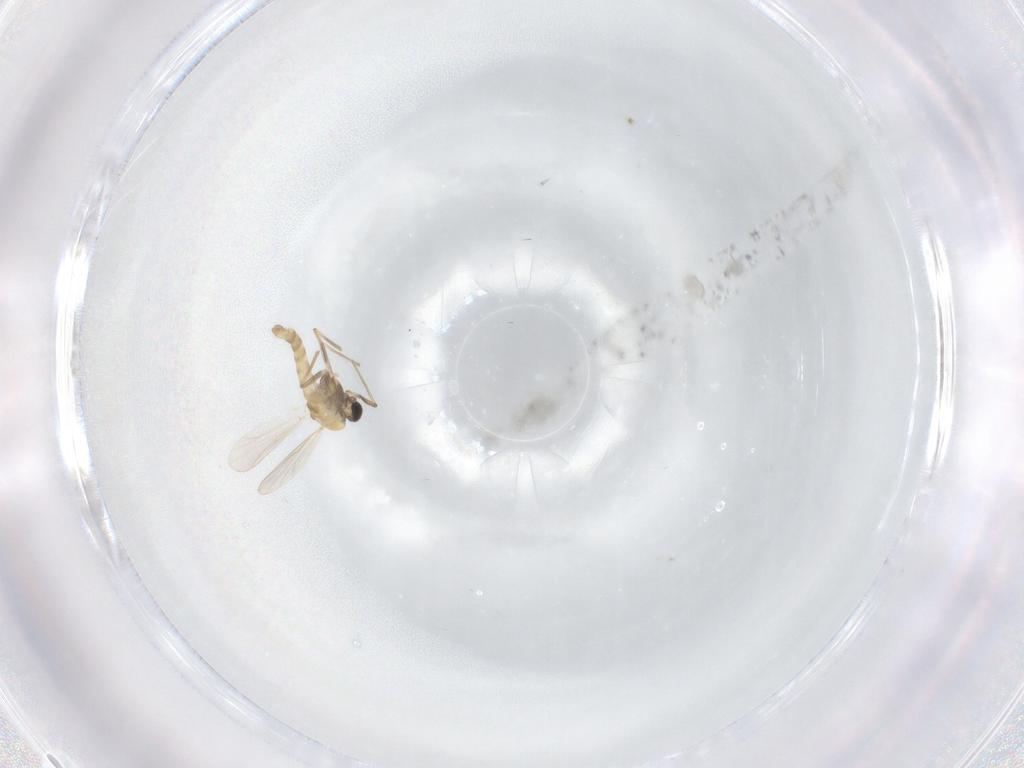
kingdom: Animalia
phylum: Arthropoda
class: Insecta
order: Diptera
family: Chironomidae
